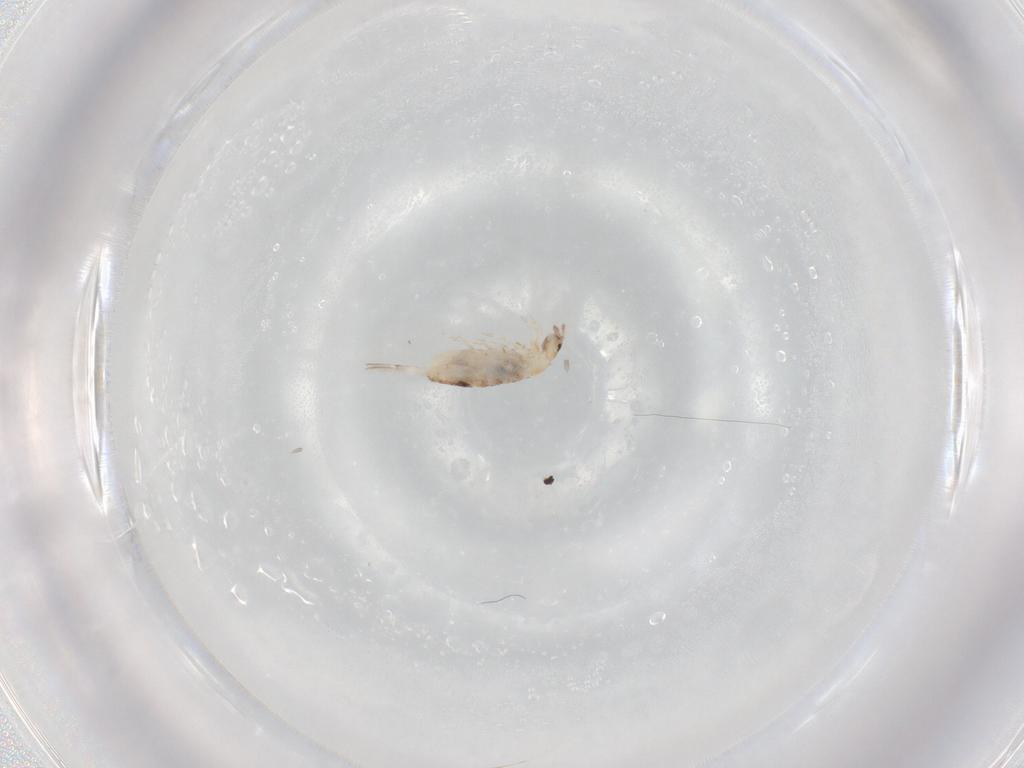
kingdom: Animalia
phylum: Arthropoda
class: Collembola
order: Entomobryomorpha
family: Entomobryidae
